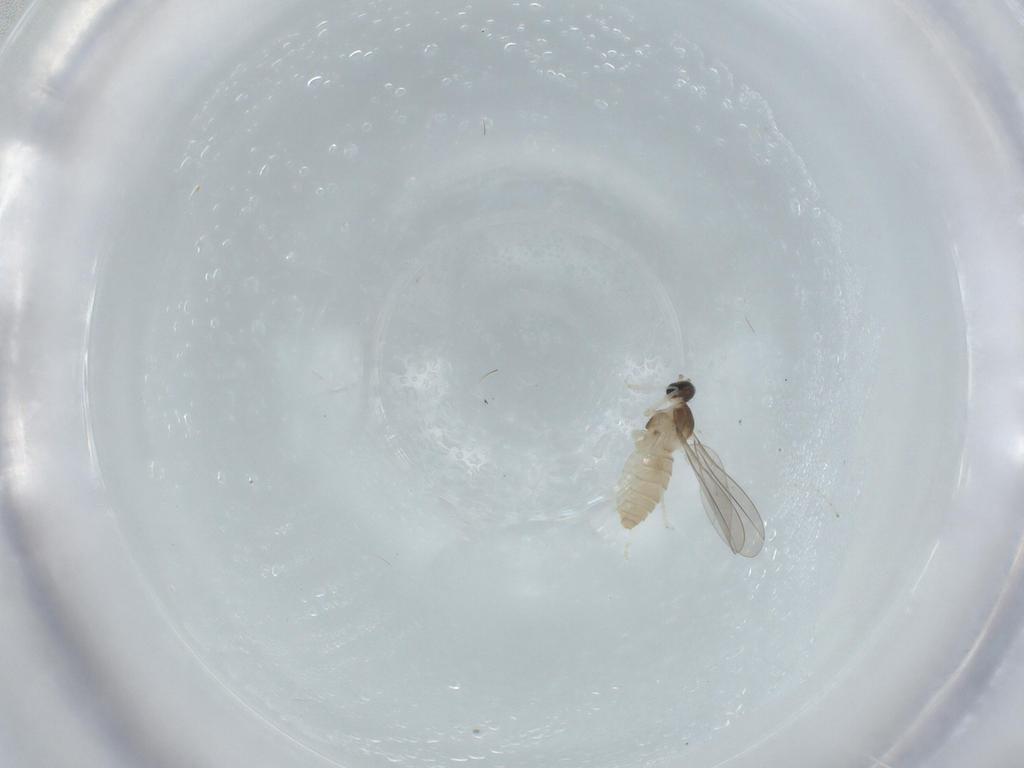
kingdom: Animalia
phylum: Arthropoda
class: Insecta
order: Diptera
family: Cecidomyiidae
